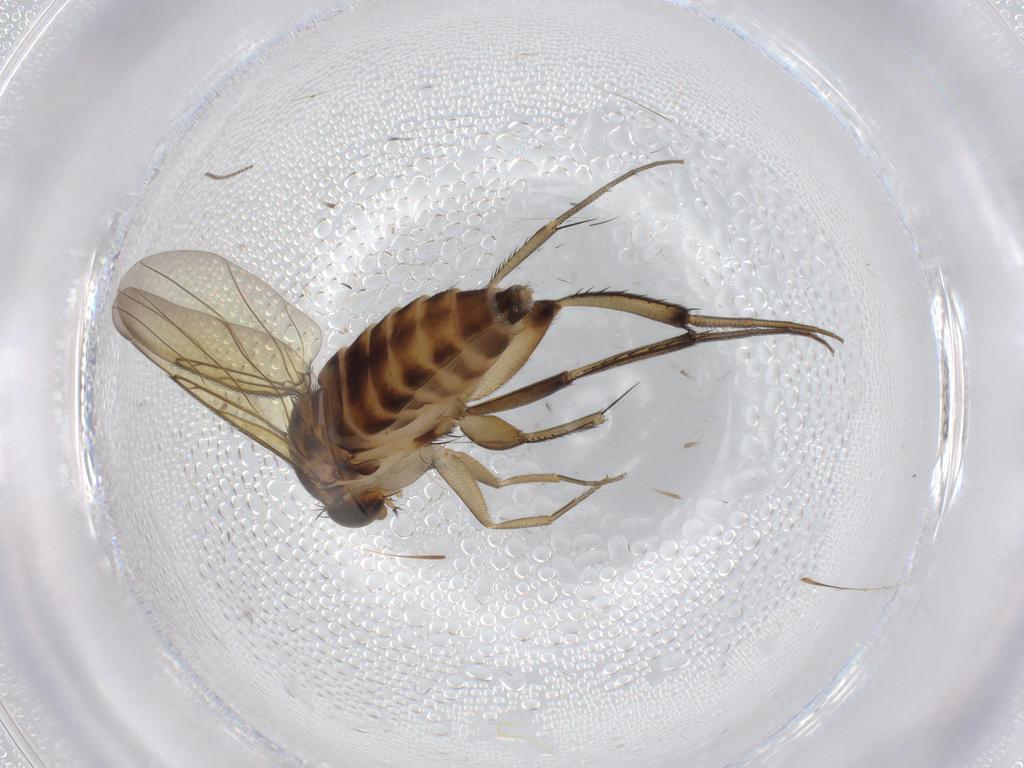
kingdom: Animalia
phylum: Arthropoda
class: Insecta
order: Diptera
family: Phoridae
